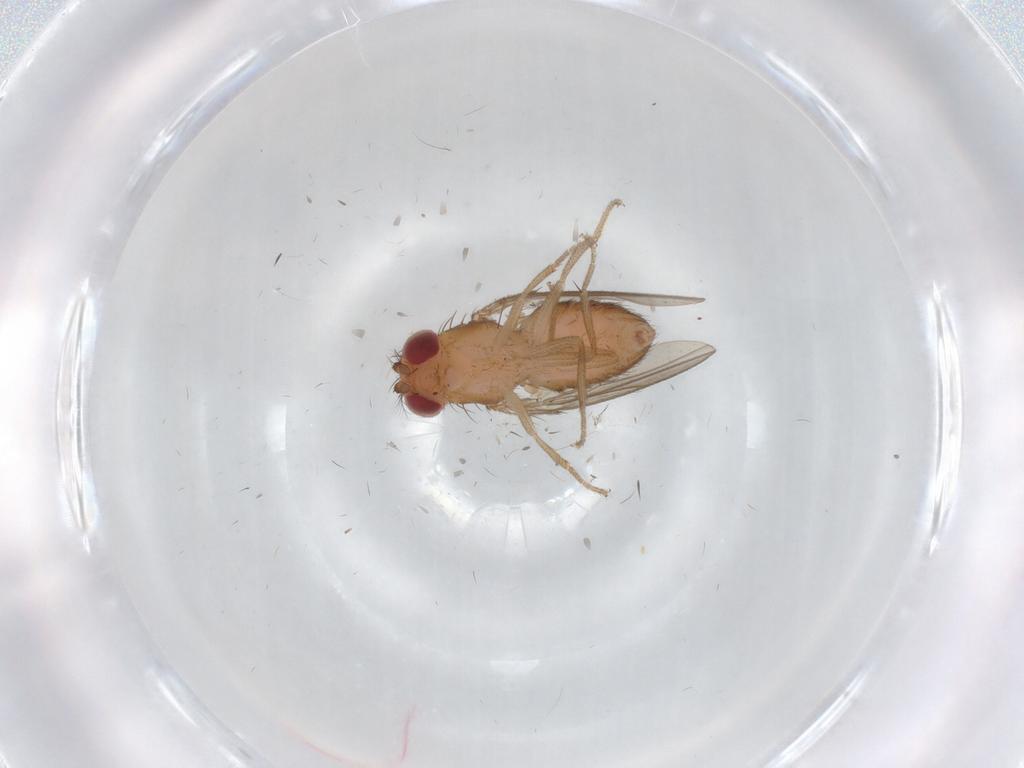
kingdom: Animalia
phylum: Arthropoda
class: Insecta
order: Diptera
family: Drosophilidae
